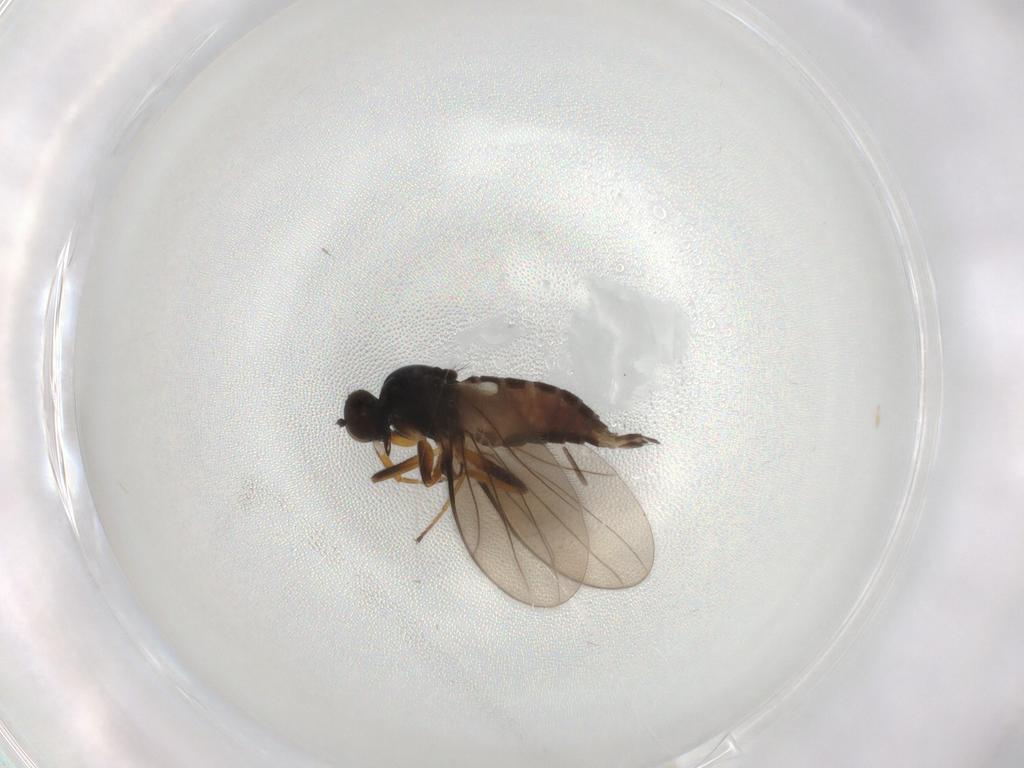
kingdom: Animalia
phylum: Arthropoda
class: Insecta
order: Diptera
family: Hybotidae
